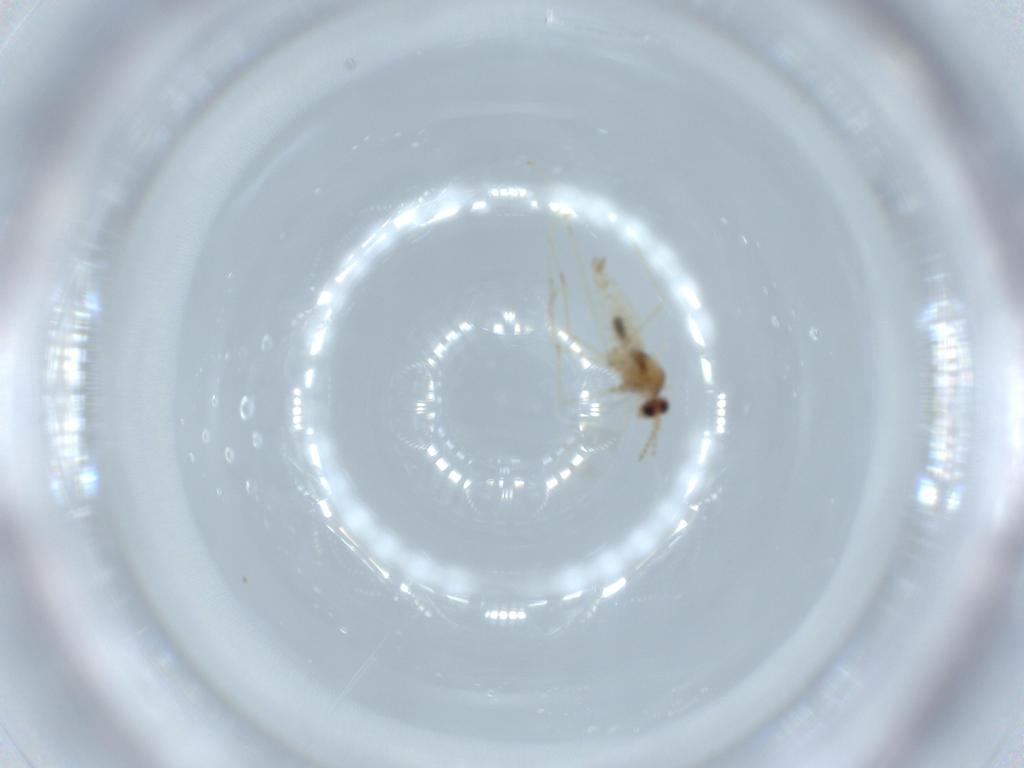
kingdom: Animalia
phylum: Arthropoda
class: Insecta
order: Diptera
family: Cecidomyiidae
